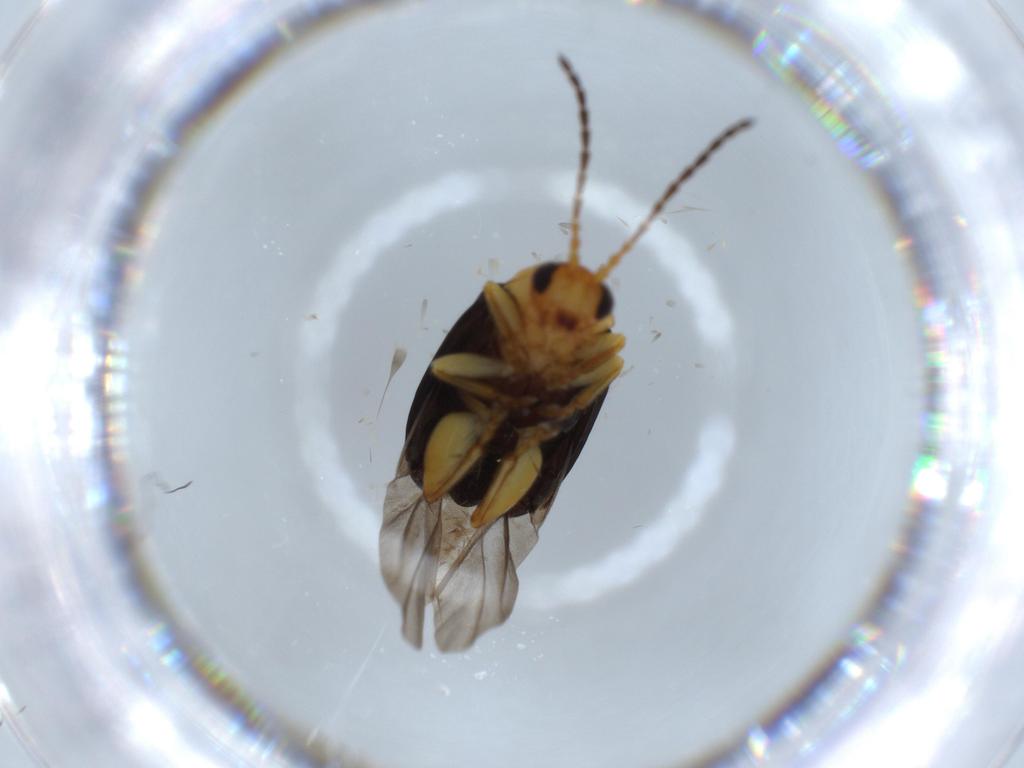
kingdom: Animalia
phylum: Arthropoda
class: Insecta
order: Coleoptera
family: Chrysomelidae
